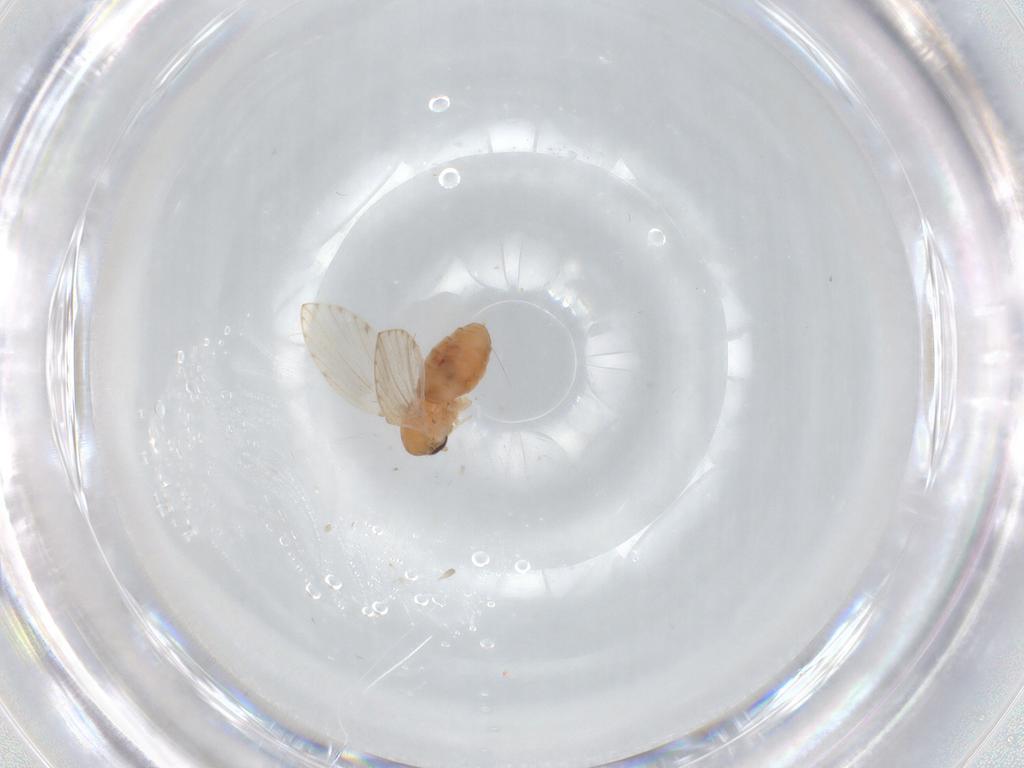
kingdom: Animalia
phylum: Arthropoda
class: Insecta
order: Diptera
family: Psychodidae
